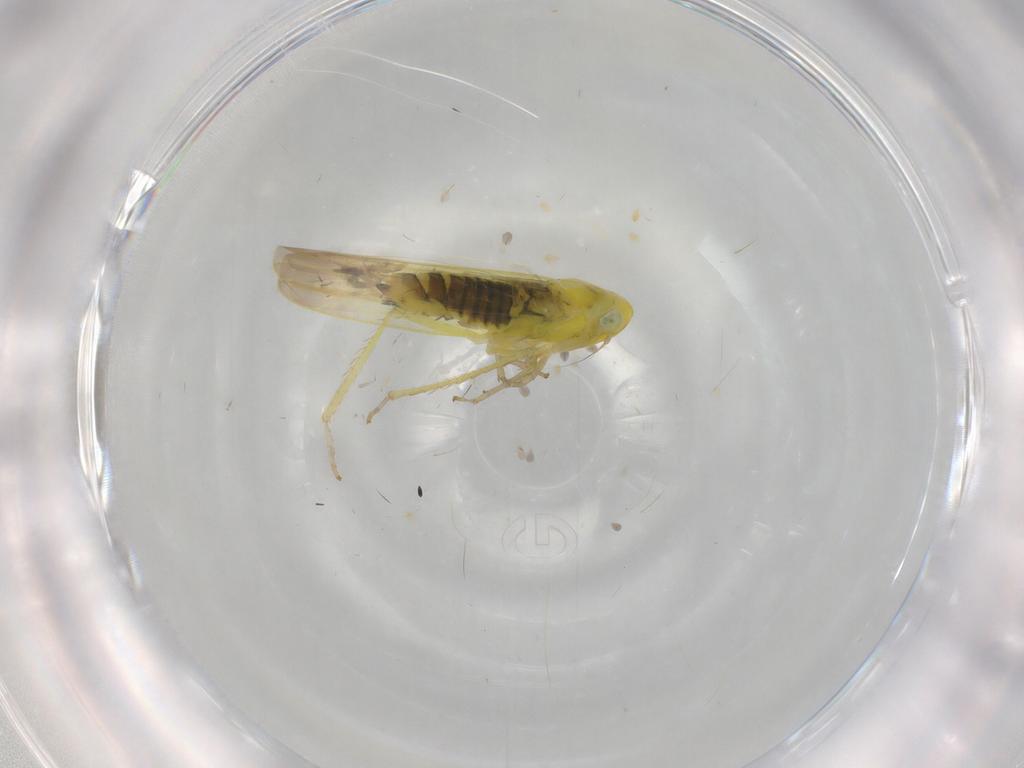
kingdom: Animalia
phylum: Arthropoda
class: Insecta
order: Hemiptera
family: Cicadellidae
